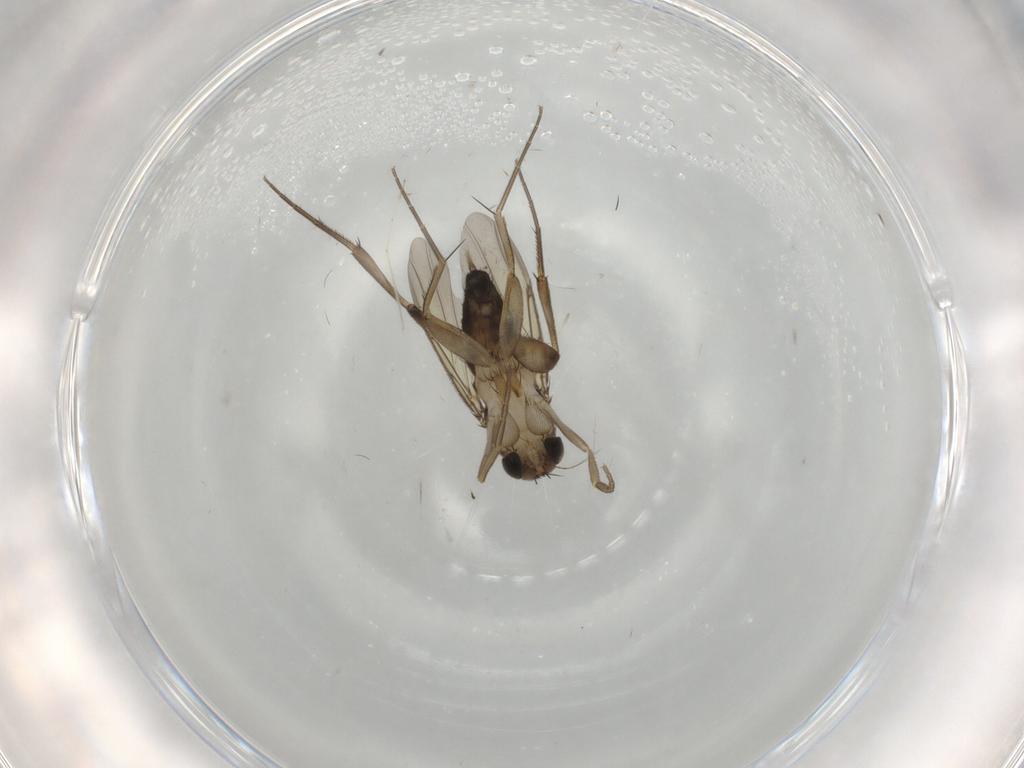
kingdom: Animalia
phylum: Arthropoda
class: Insecta
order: Diptera
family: Phoridae
